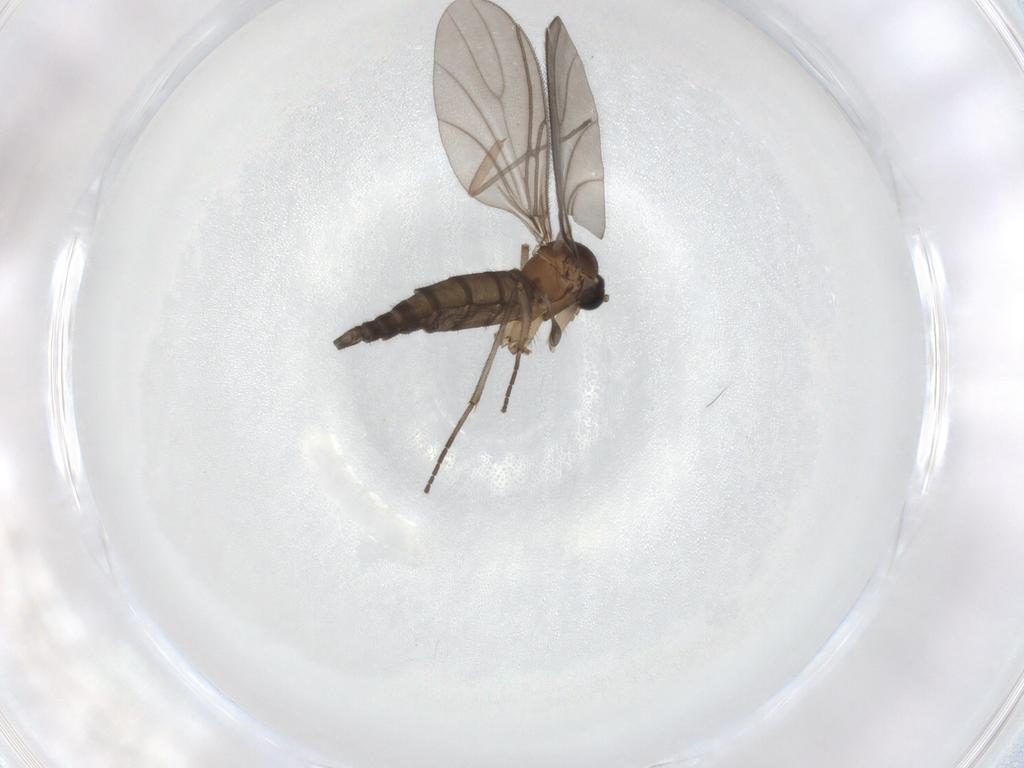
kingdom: Animalia
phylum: Arthropoda
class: Insecta
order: Diptera
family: Sciaridae
